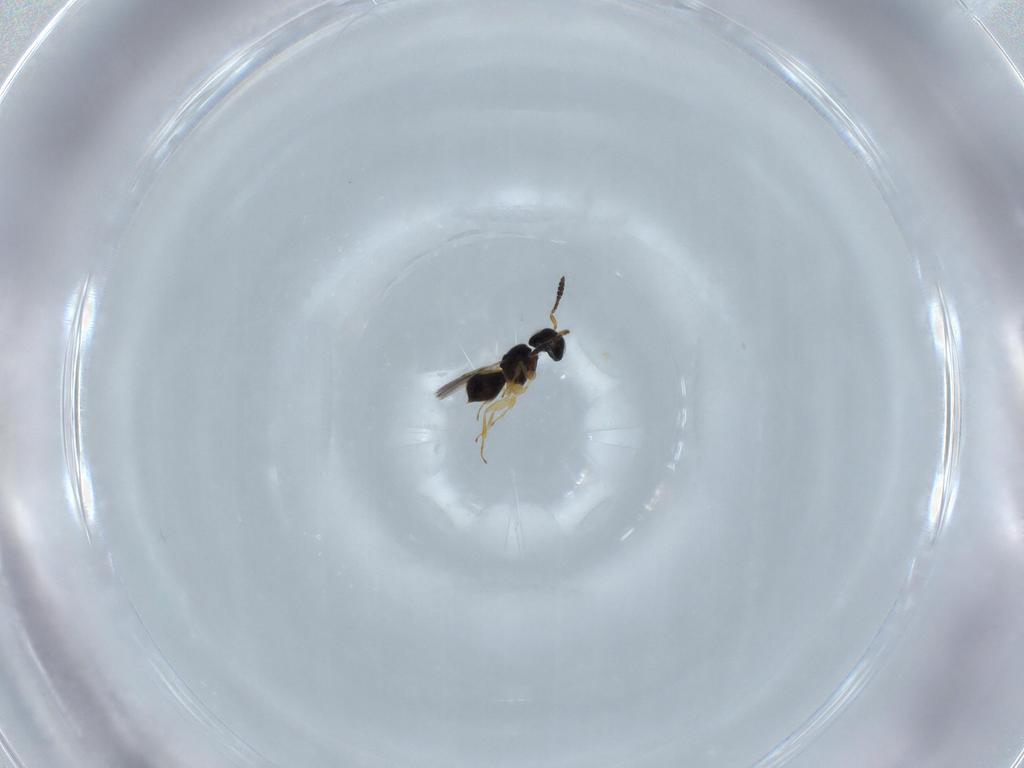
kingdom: Animalia
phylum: Arthropoda
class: Insecta
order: Hymenoptera
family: Scelionidae
